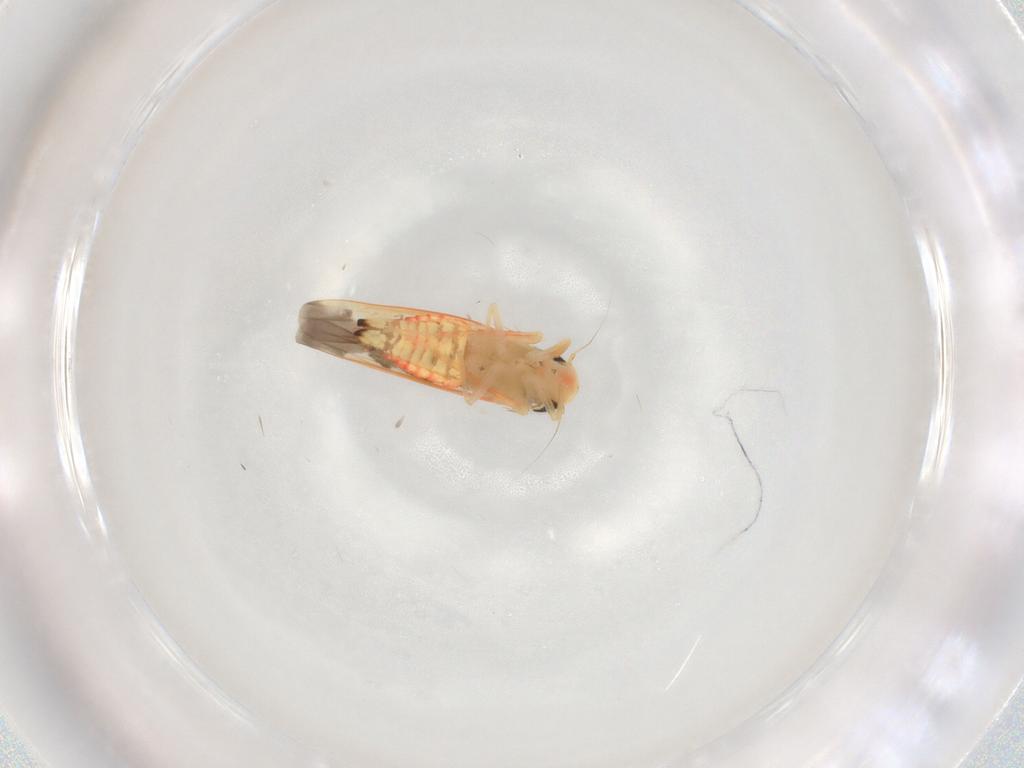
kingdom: Animalia
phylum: Arthropoda
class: Insecta
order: Hemiptera
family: Cicadellidae
